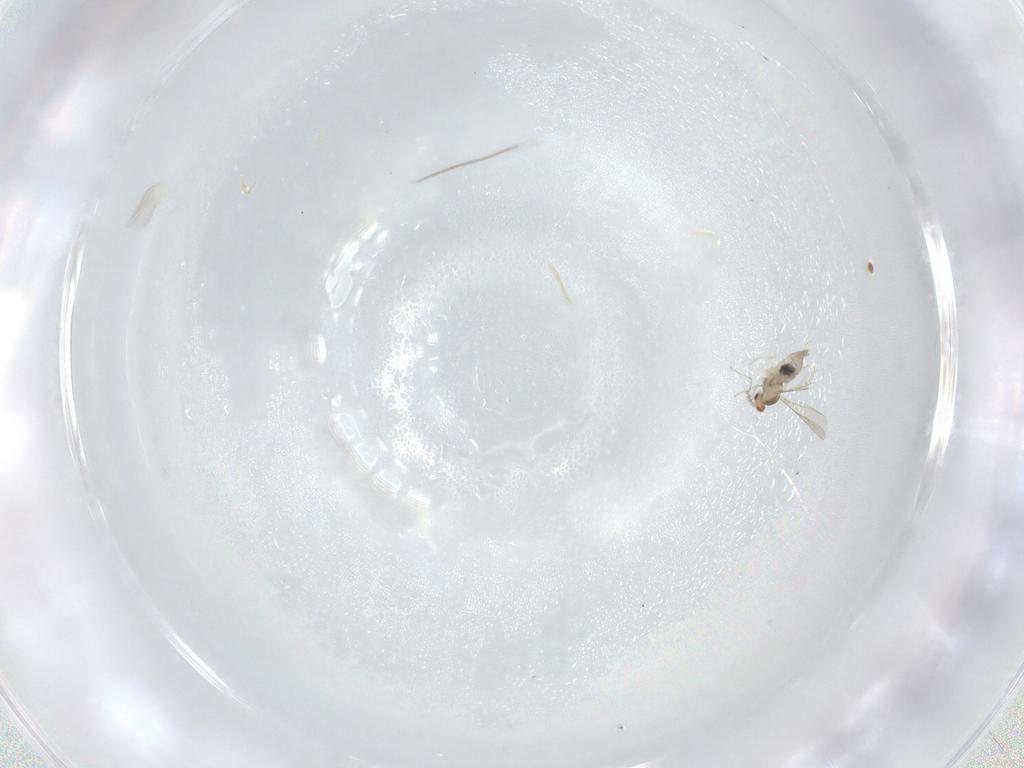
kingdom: Animalia
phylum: Arthropoda
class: Insecta
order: Diptera
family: Cecidomyiidae
